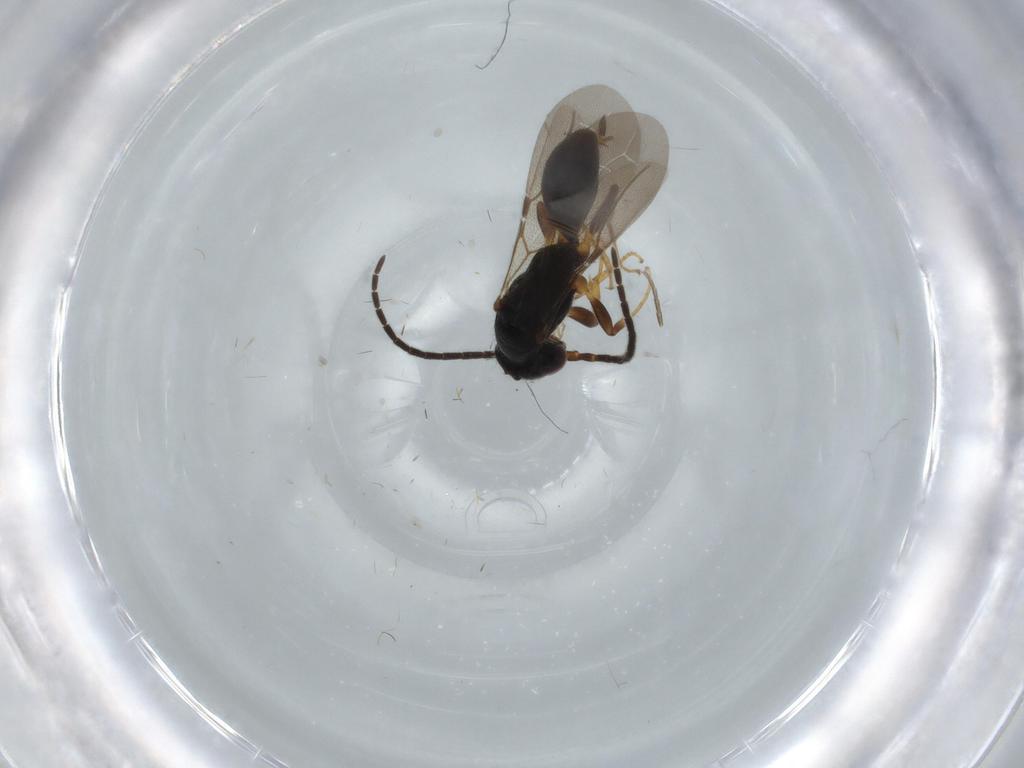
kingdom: Animalia
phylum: Arthropoda
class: Insecta
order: Hymenoptera
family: Bethylidae
